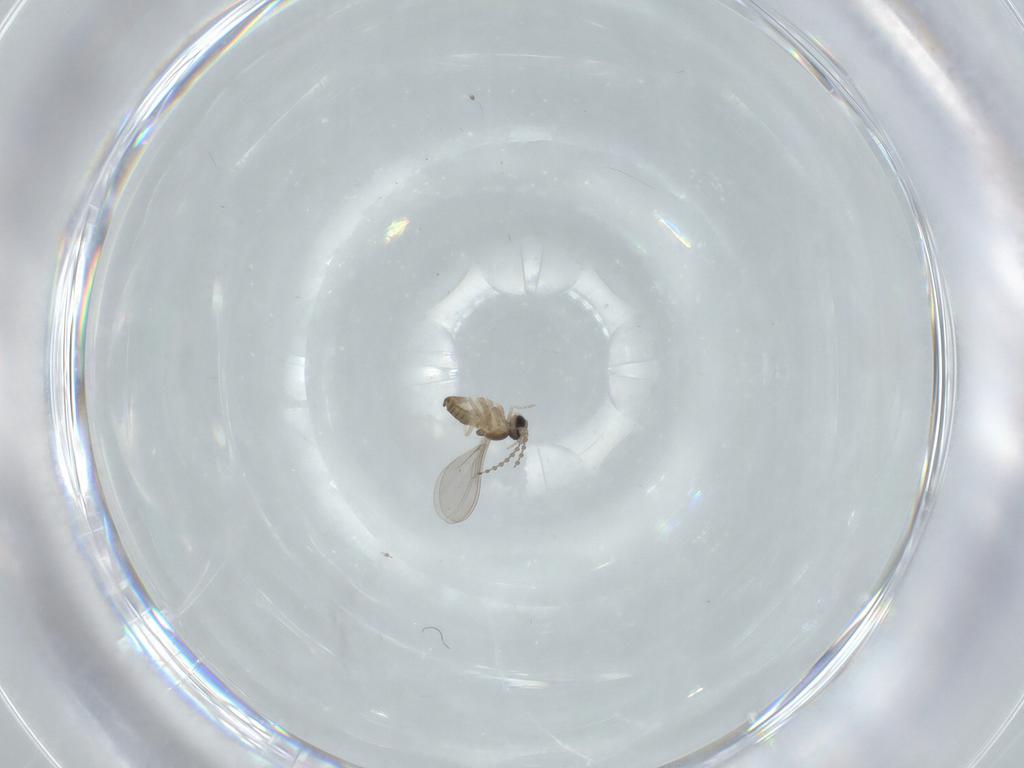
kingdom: Animalia
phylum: Arthropoda
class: Insecta
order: Diptera
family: Cecidomyiidae
